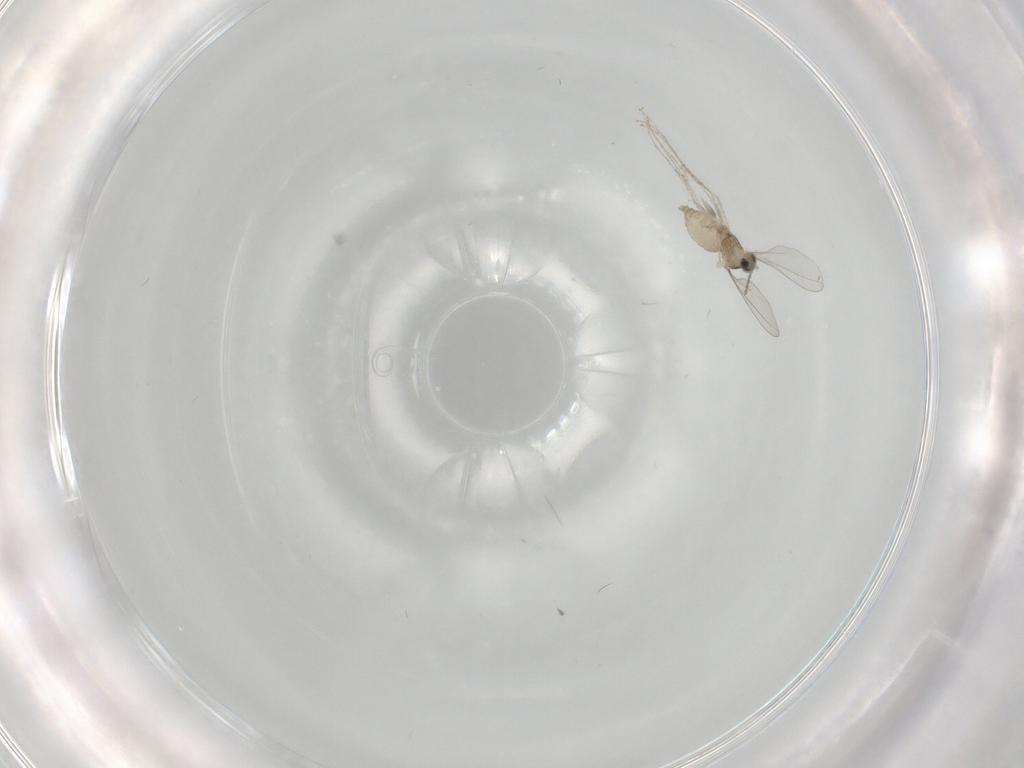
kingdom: Animalia
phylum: Arthropoda
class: Insecta
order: Diptera
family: Cecidomyiidae
